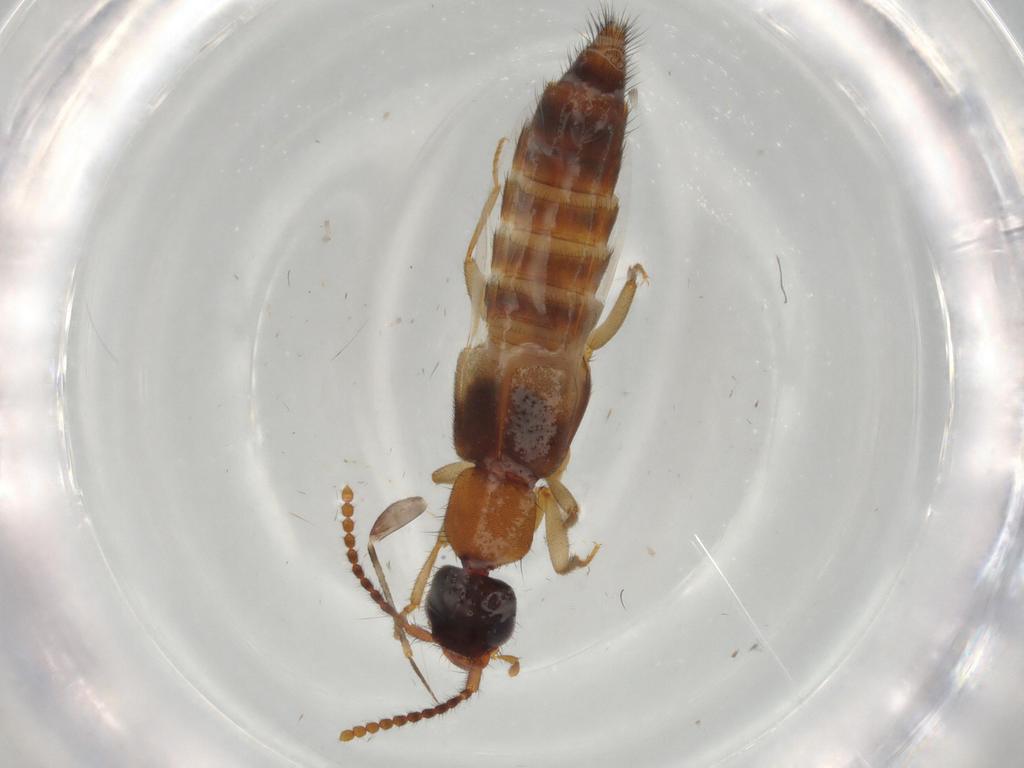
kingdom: Animalia
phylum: Arthropoda
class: Insecta
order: Coleoptera
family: Staphylinidae
